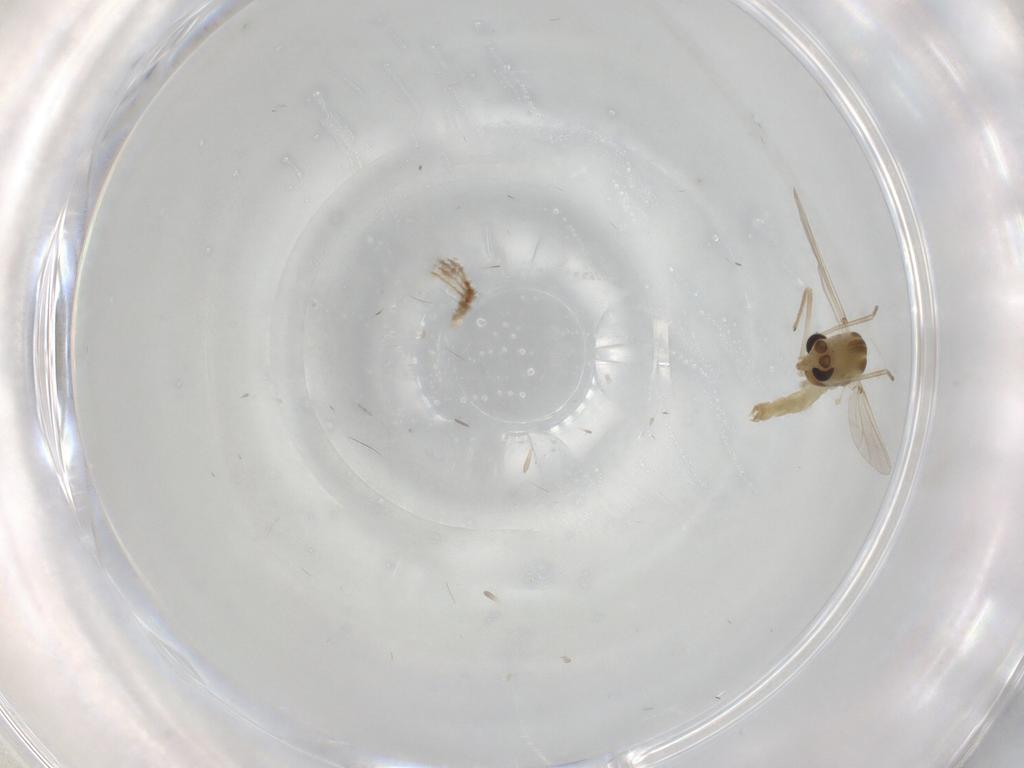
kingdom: Animalia
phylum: Arthropoda
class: Insecta
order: Diptera
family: Chironomidae
